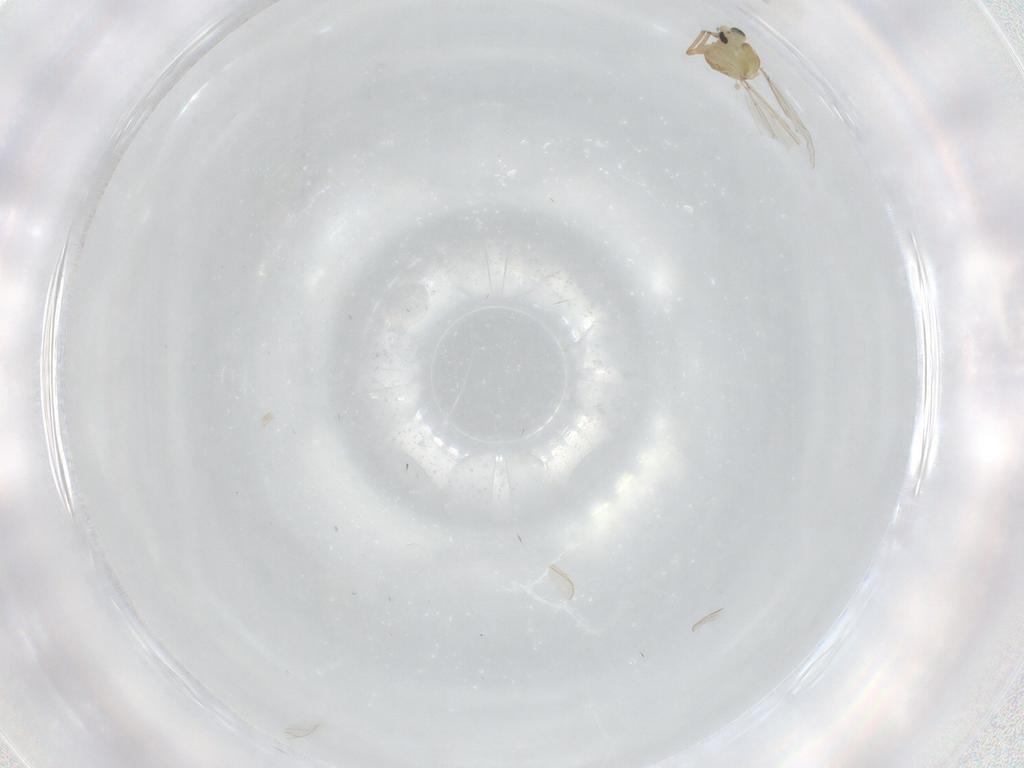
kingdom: Animalia
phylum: Arthropoda
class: Insecta
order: Diptera
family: Chironomidae
